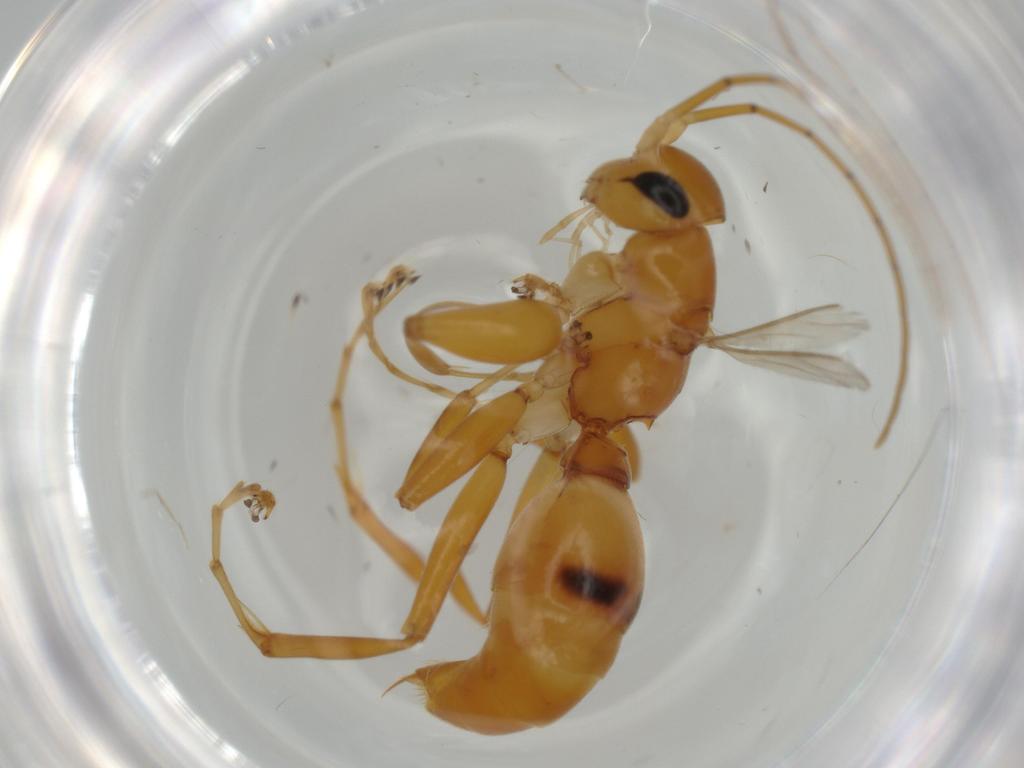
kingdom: Animalia
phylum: Arthropoda
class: Insecta
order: Hymenoptera
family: Rhopalosomatidae
